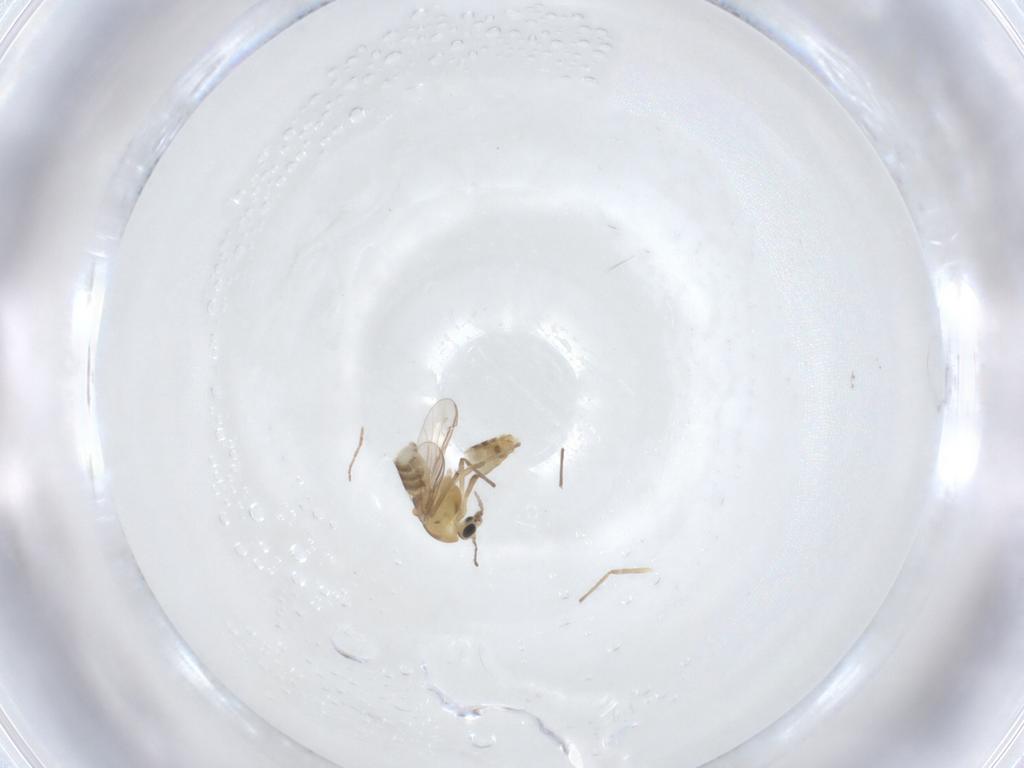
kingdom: Animalia
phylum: Arthropoda
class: Insecta
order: Diptera
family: Chironomidae
